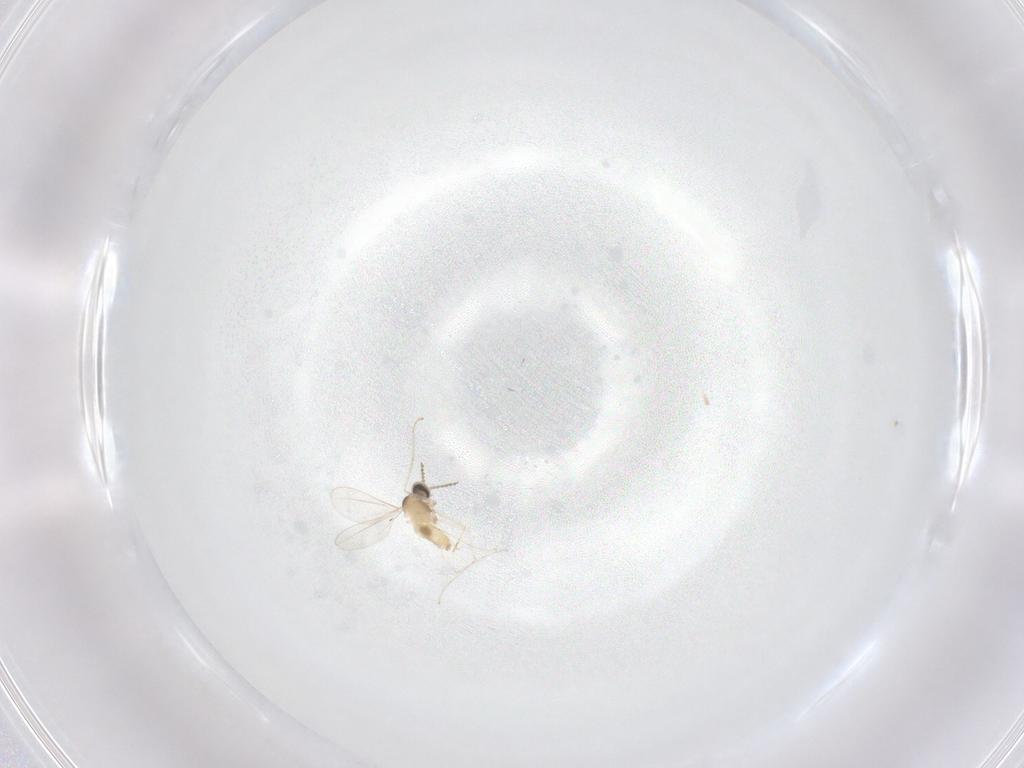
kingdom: Animalia
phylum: Arthropoda
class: Insecta
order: Diptera
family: Cecidomyiidae
